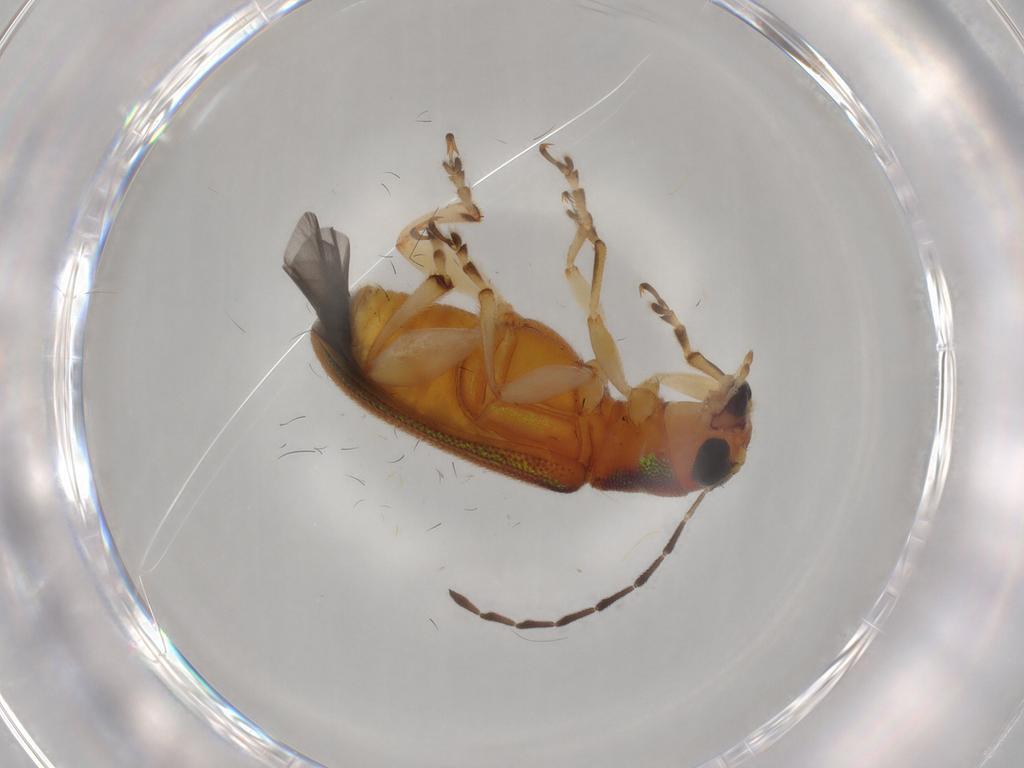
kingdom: Animalia
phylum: Arthropoda
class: Insecta
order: Coleoptera
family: Chrysomelidae
